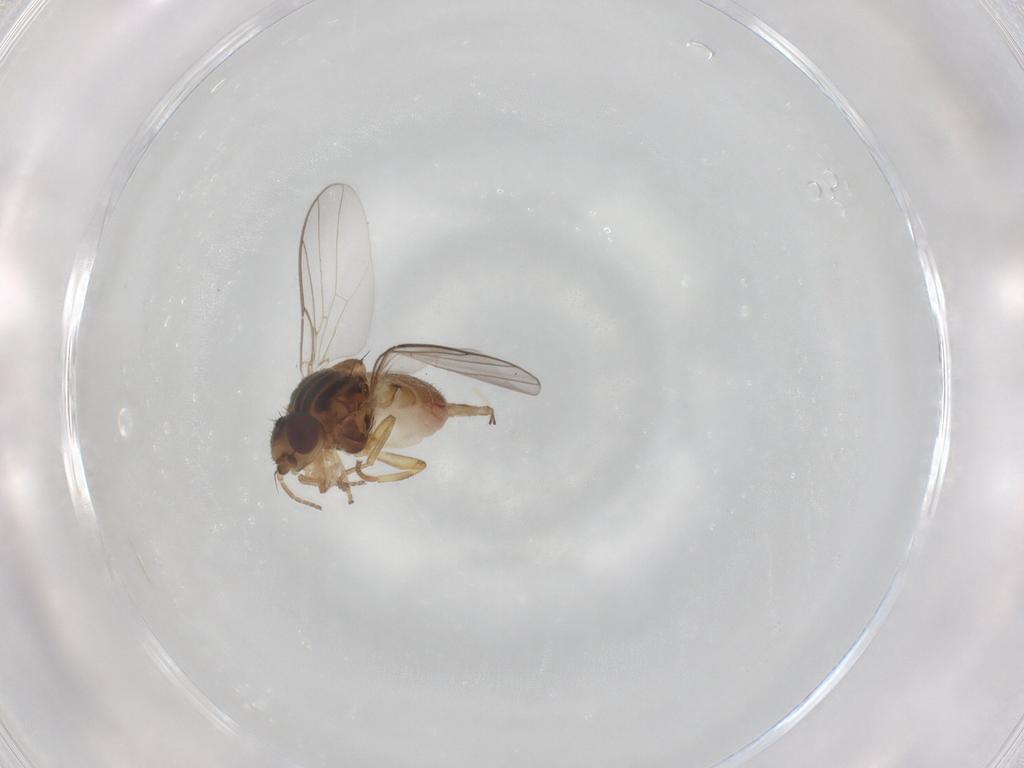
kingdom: Animalia
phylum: Arthropoda
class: Insecta
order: Diptera
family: Chloropidae
